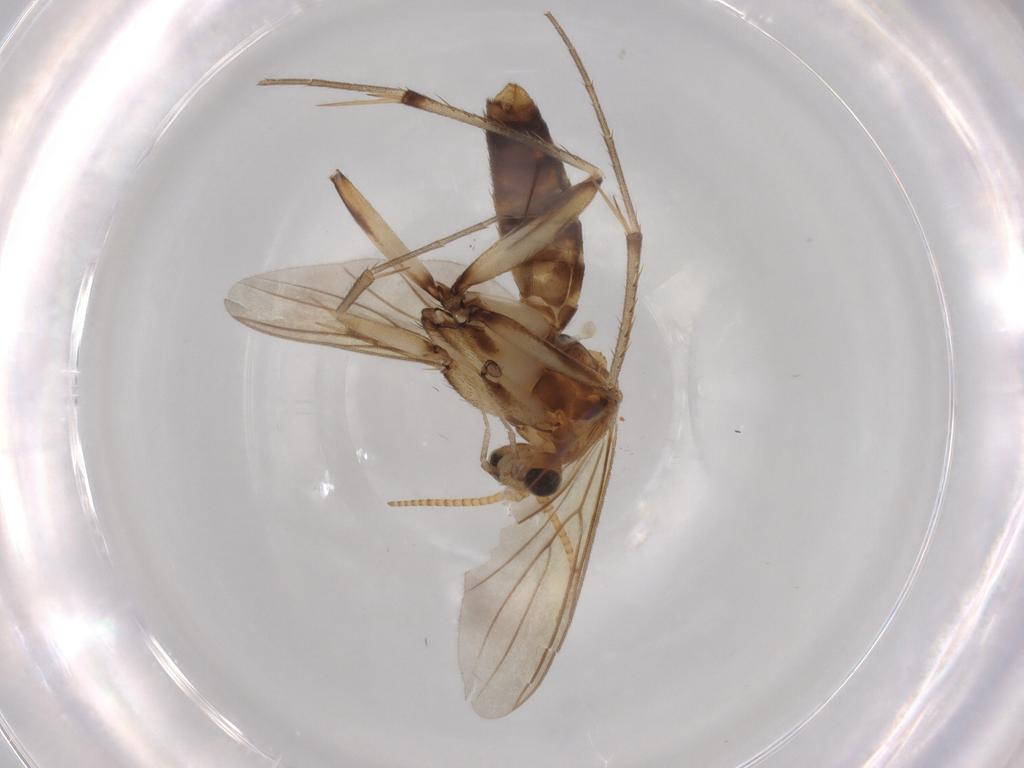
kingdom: Animalia
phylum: Arthropoda
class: Insecta
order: Diptera
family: Mycetophilidae
